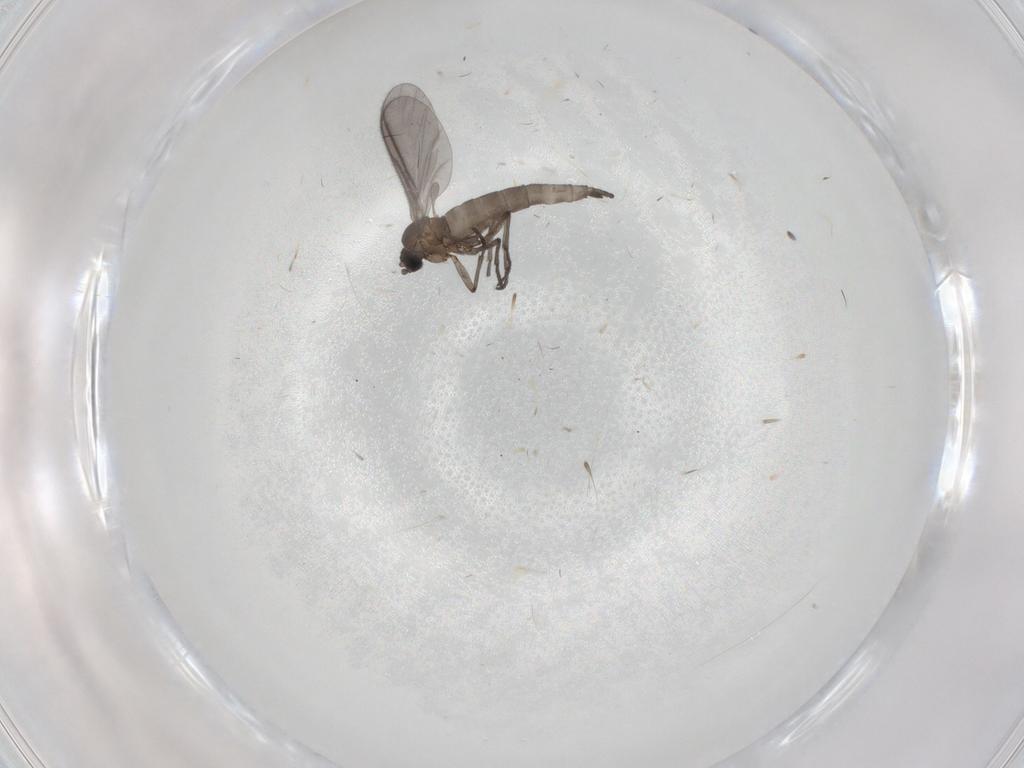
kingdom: Animalia
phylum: Arthropoda
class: Insecta
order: Diptera
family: Sciaridae
